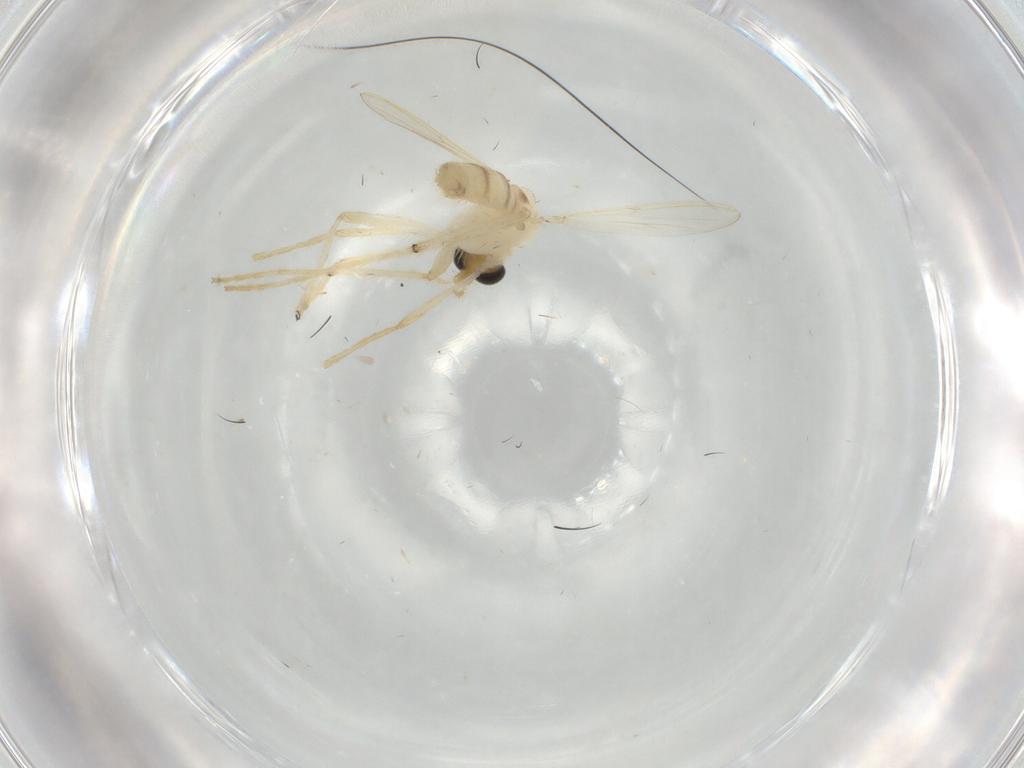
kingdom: Animalia
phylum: Arthropoda
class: Insecta
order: Diptera
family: Chironomidae
